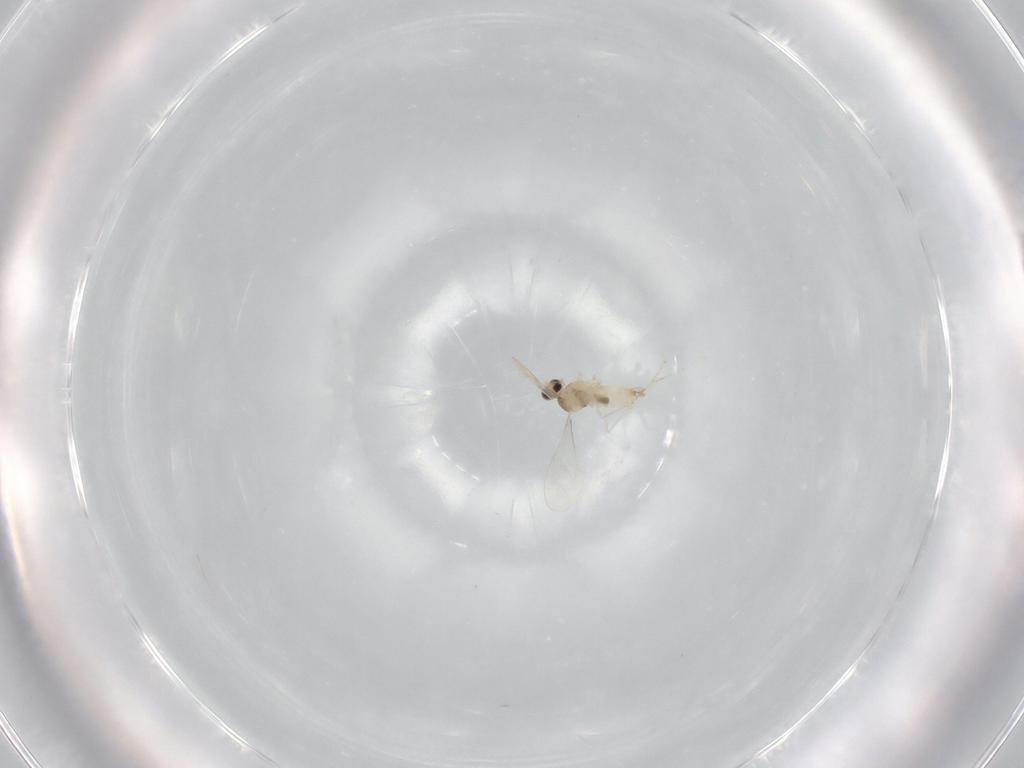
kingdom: Animalia
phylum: Arthropoda
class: Insecta
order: Diptera
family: Cecidomyiidae
